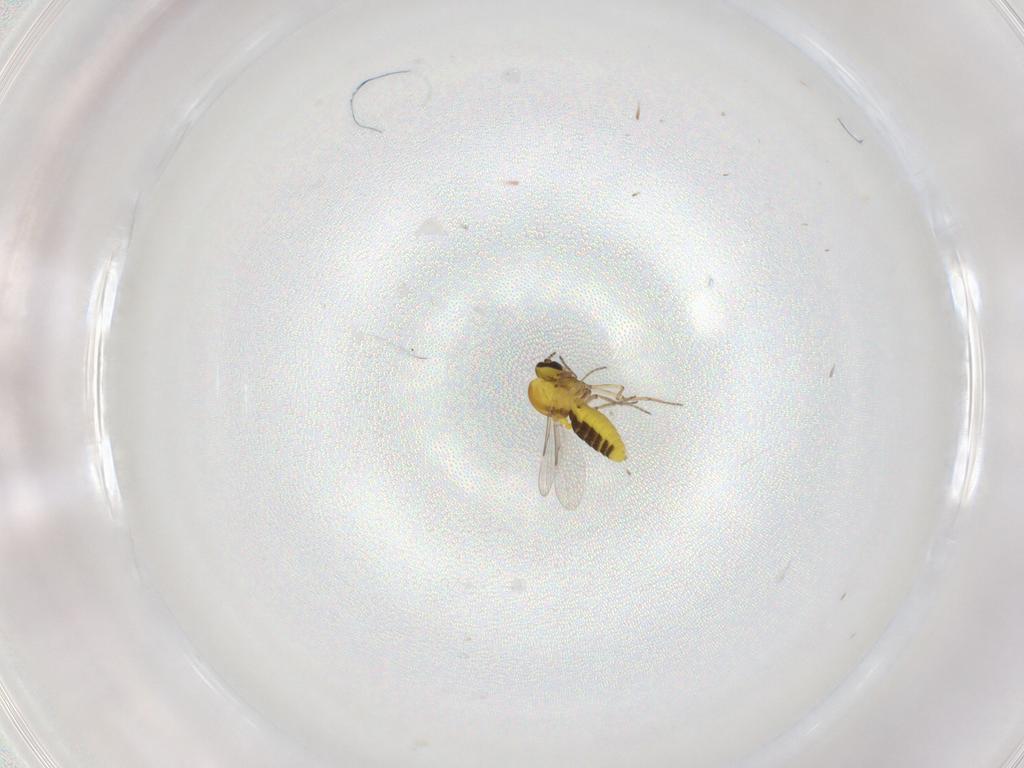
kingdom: Animalia
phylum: Arthropoda
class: Insecta
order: Diptera
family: Ceratopogonidae
